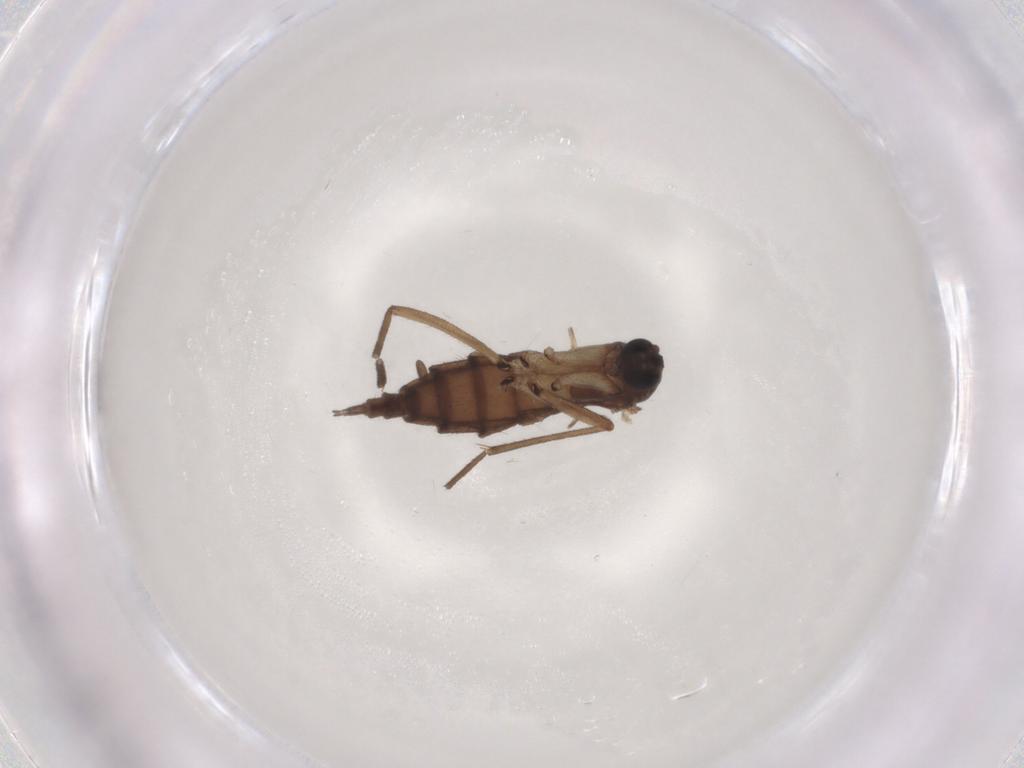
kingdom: Animalia
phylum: Arthropoda
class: Insecta
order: Diptera
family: Sciaridae
